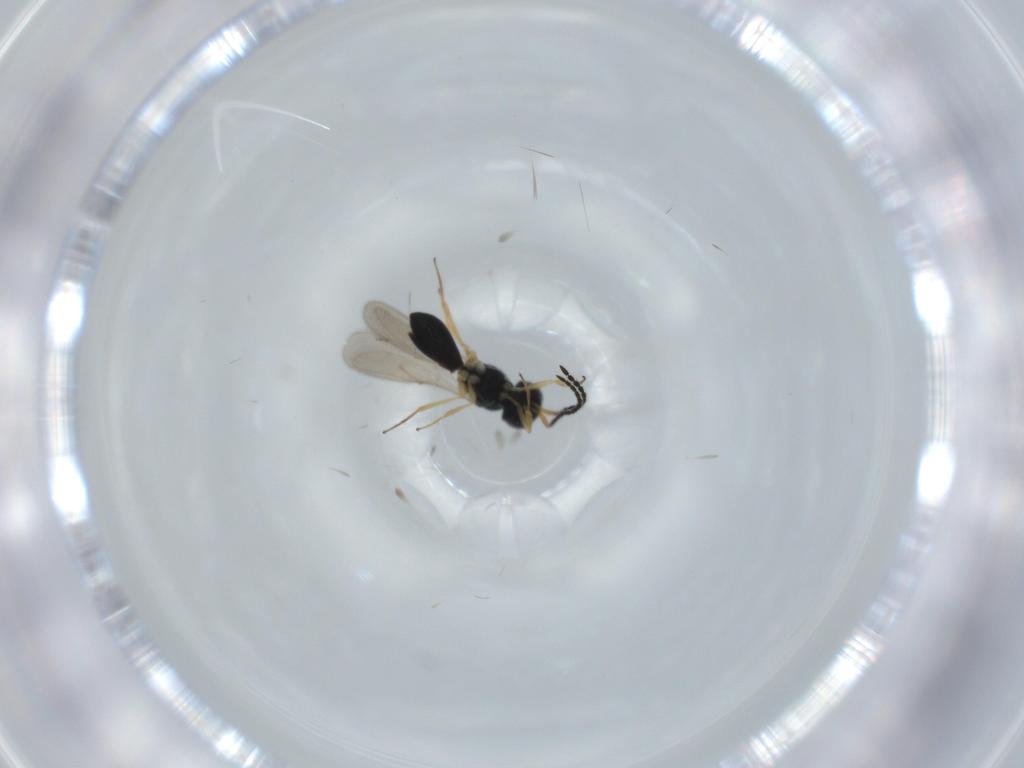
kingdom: Animalia
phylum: Arthropoda
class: Insecta
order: Hymenoptera
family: Scelionidae
